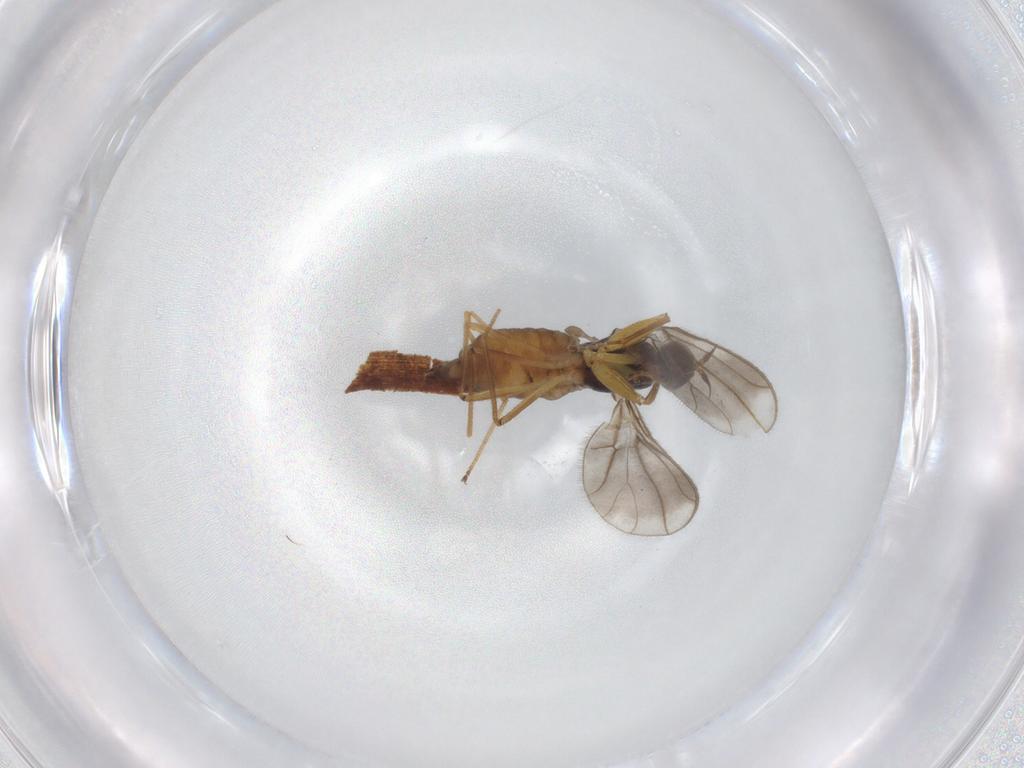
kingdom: Animalia
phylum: Arthropoda
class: Insecta
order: Diptera
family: Empididae
